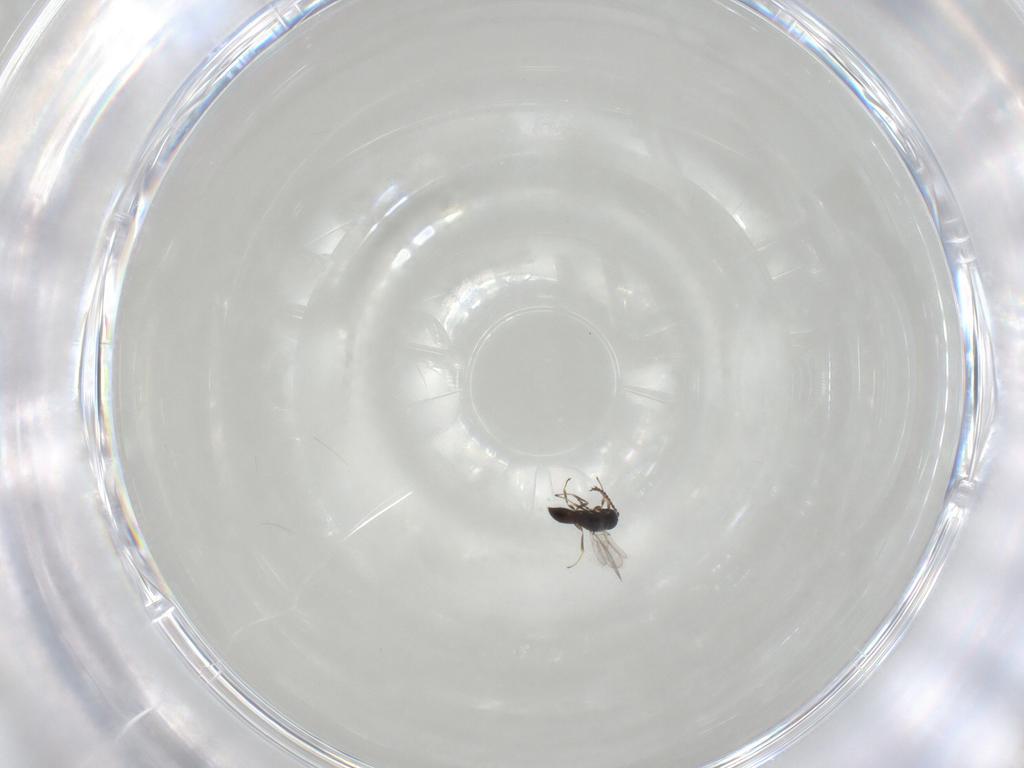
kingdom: Animalia
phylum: Arthropoda
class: Insecta
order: Hymenoptera
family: Scelionidae
